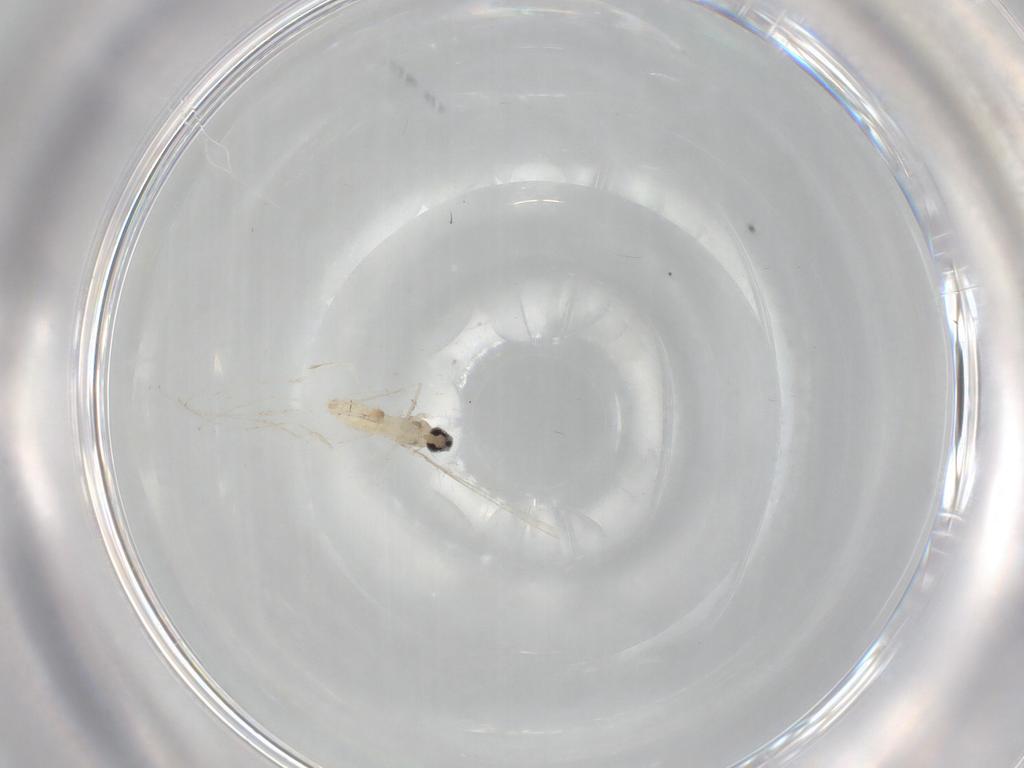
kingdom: Animalia
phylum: Arthropoda
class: Insecta
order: Diptera
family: Cecidomyiidae
